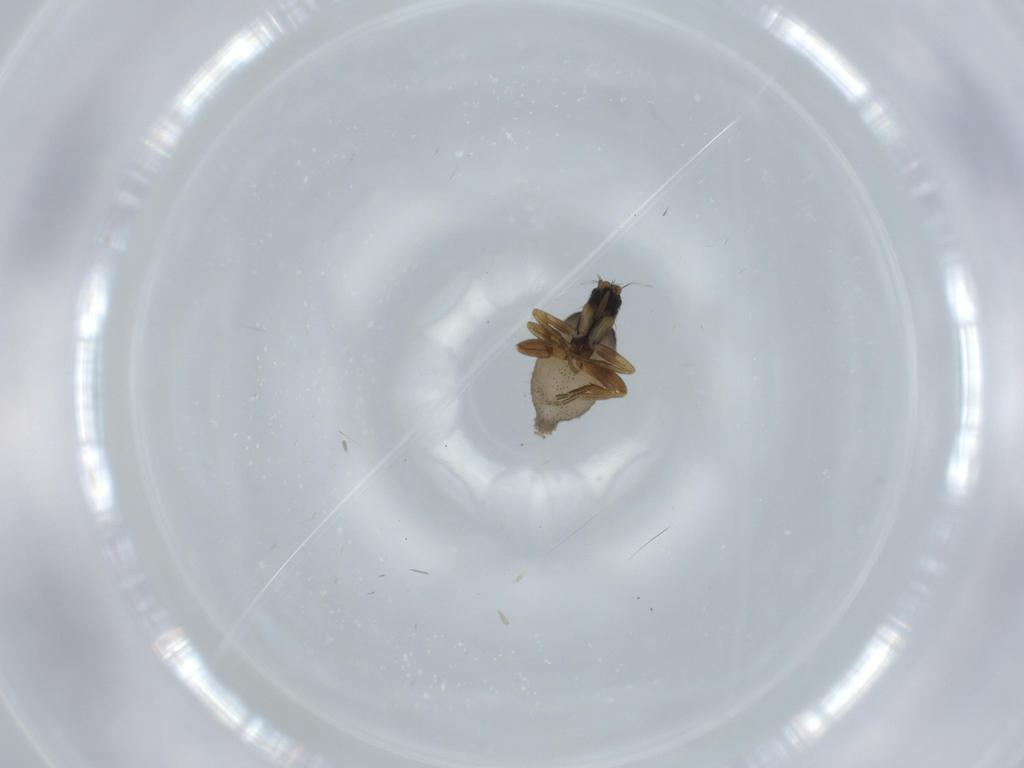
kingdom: Animalia
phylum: Arthropoda
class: Insecta
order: Diptera
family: Phoridae
